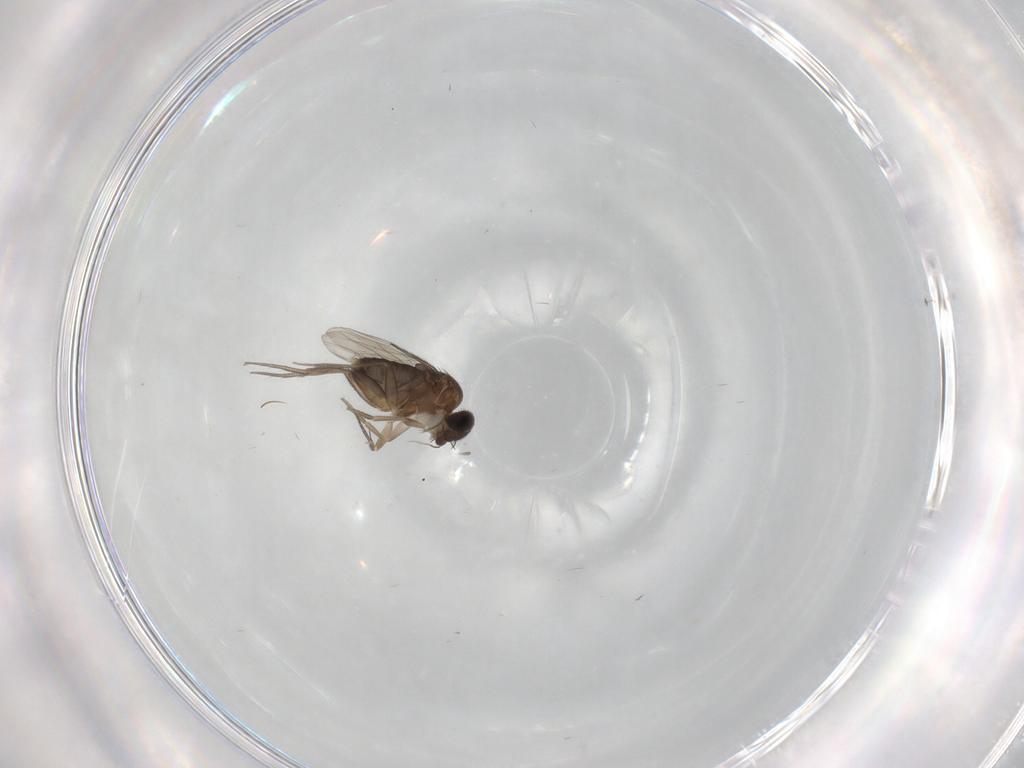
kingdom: Animalia
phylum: Arthropoda
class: Insecta
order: Diptera
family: Phoridae
